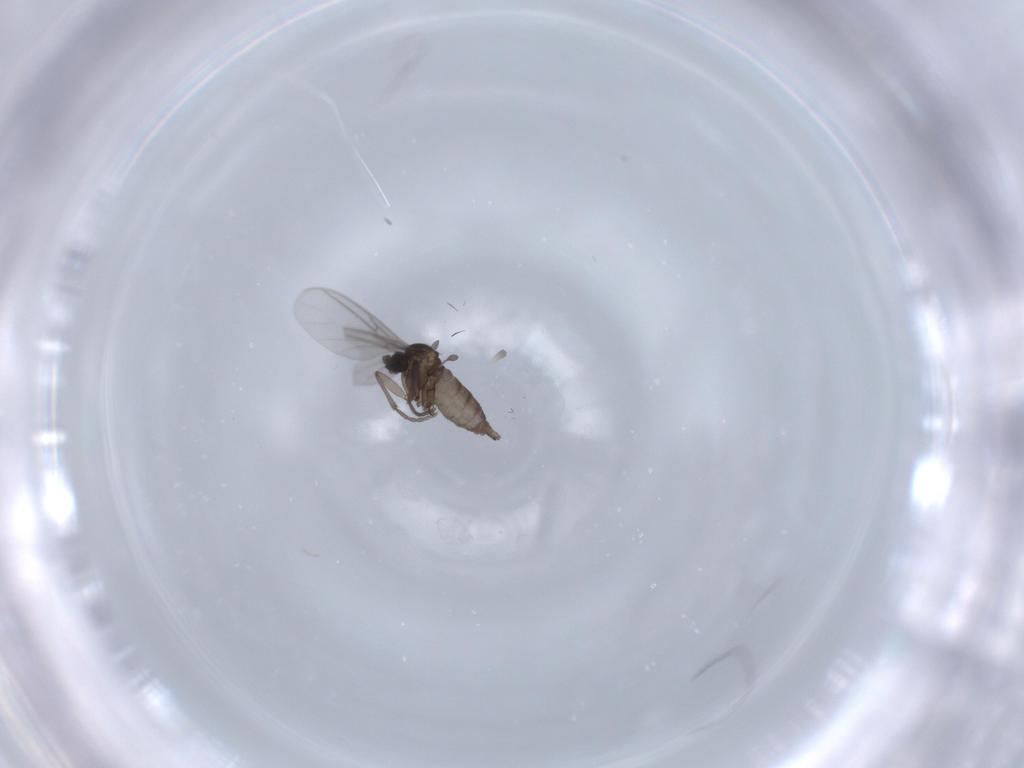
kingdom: Animalia
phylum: Arthropoda
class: Insecta
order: Diptera
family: Sciaridae
